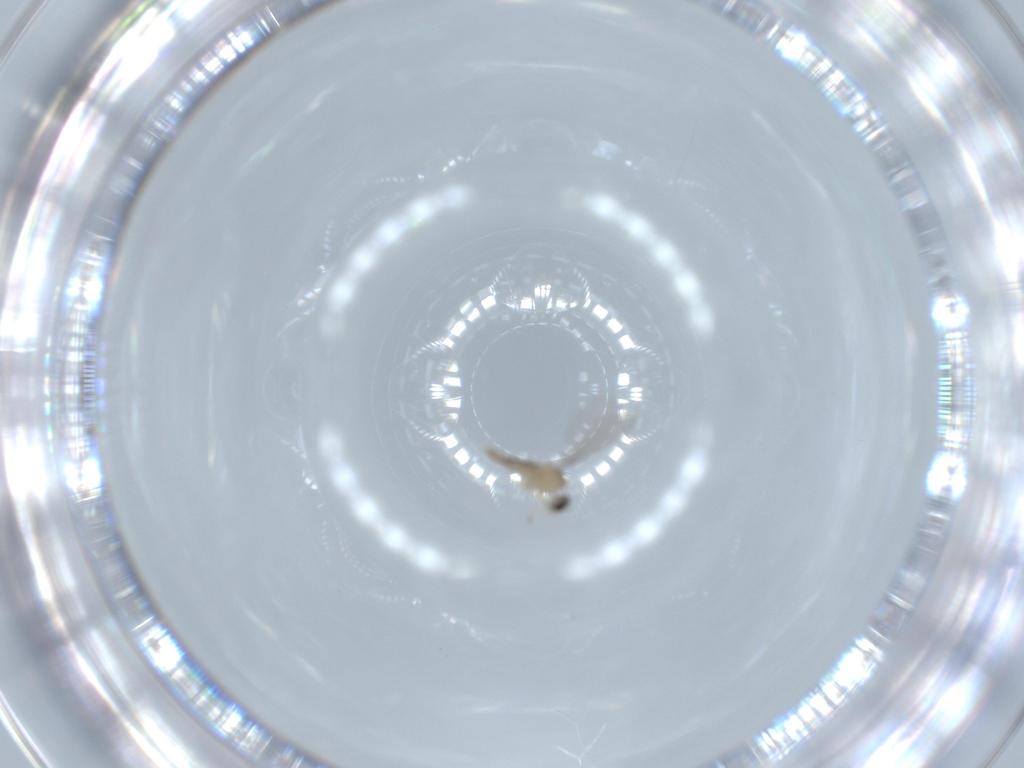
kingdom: Animalia
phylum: Arthropoda
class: Insecta
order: Diptera
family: Cecidomyiidae
